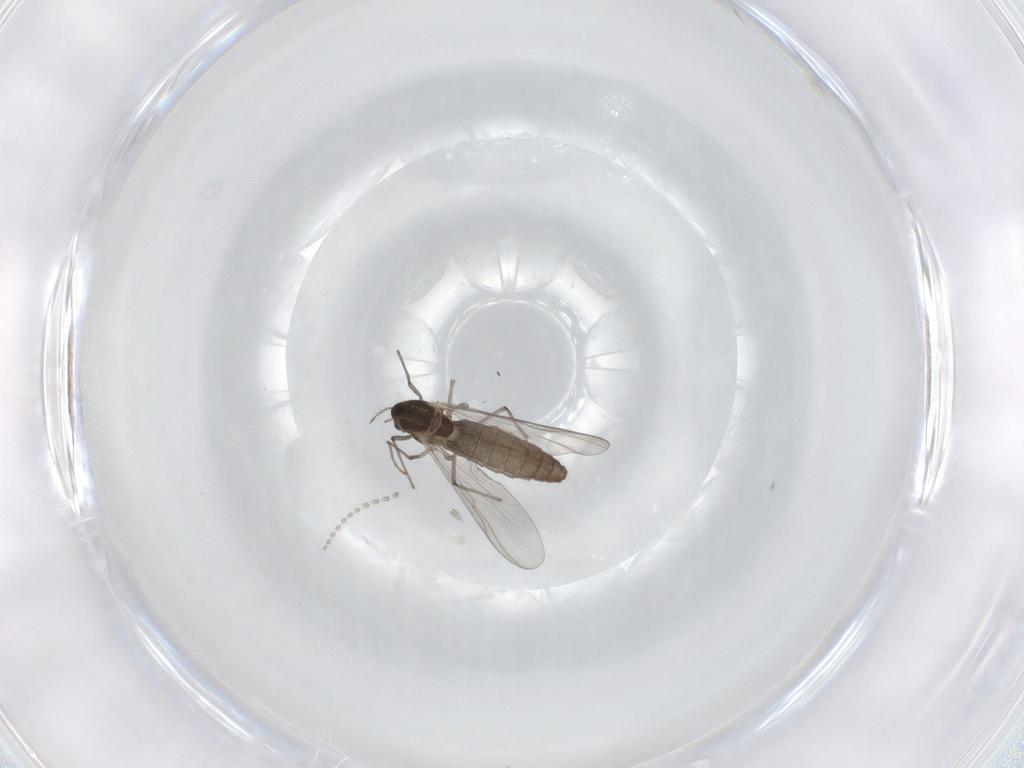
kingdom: Animalia
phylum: Arthropoda
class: Insecta
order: Diptera
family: Chironomidae
